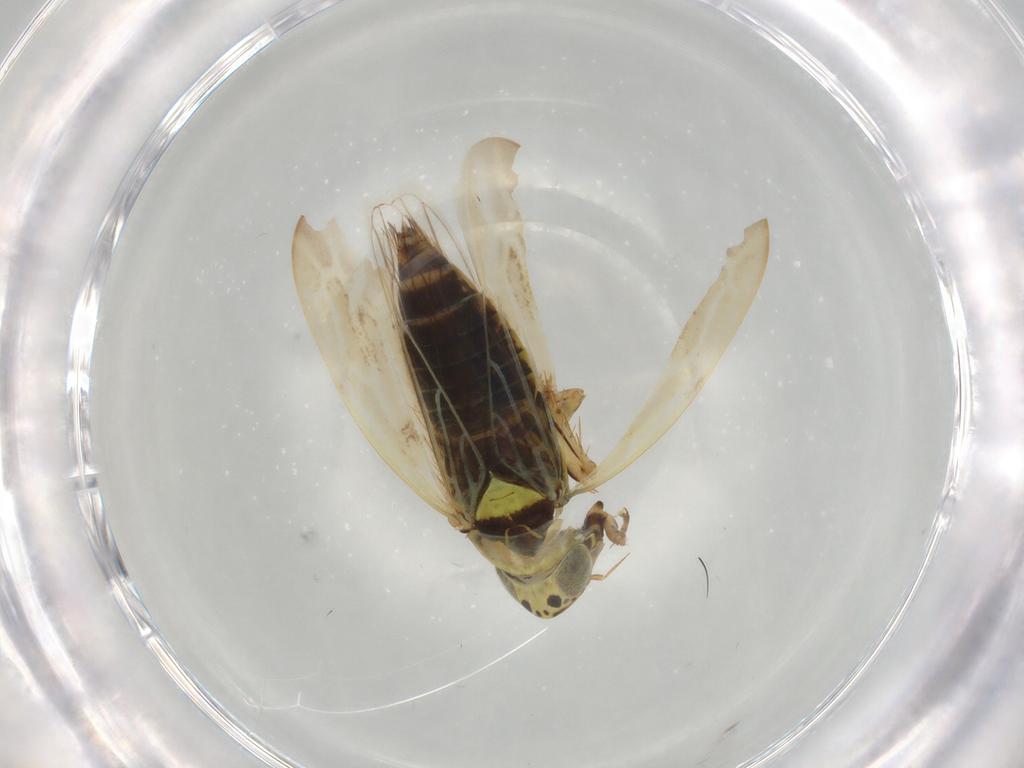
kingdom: Animalia
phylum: Arthropoda
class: Insecta
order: Hemiptera
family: Cicadellidae
